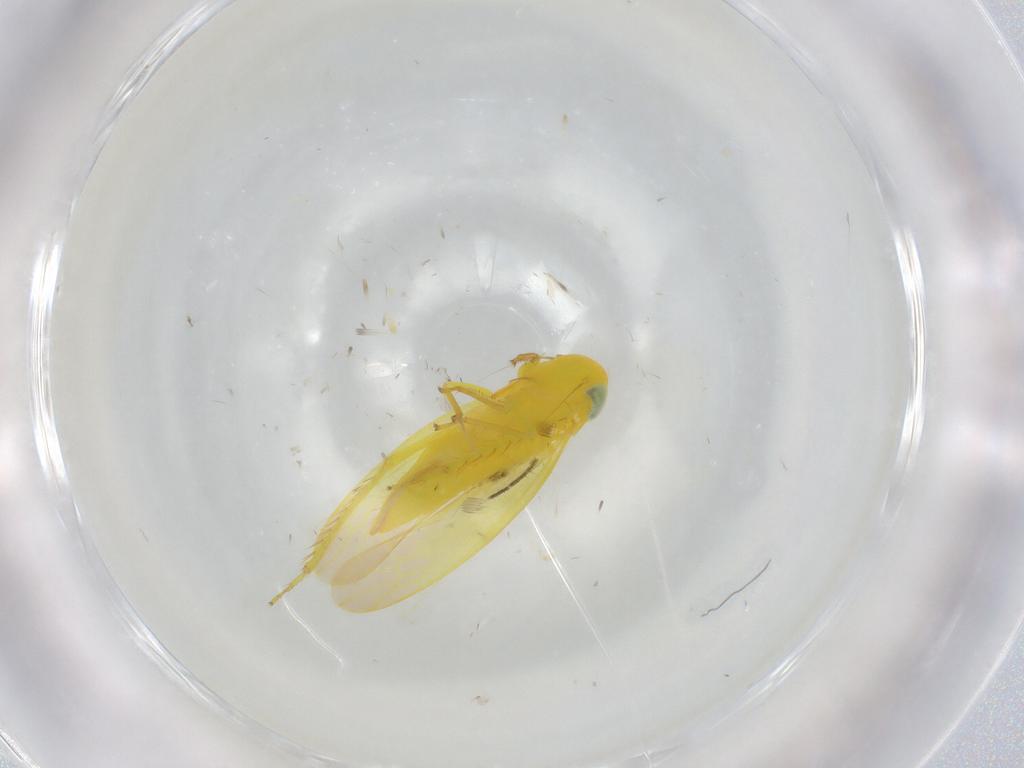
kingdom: Animalia
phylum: Arthropoda
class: Insecta
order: Hemiptera
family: Cicadellidae
